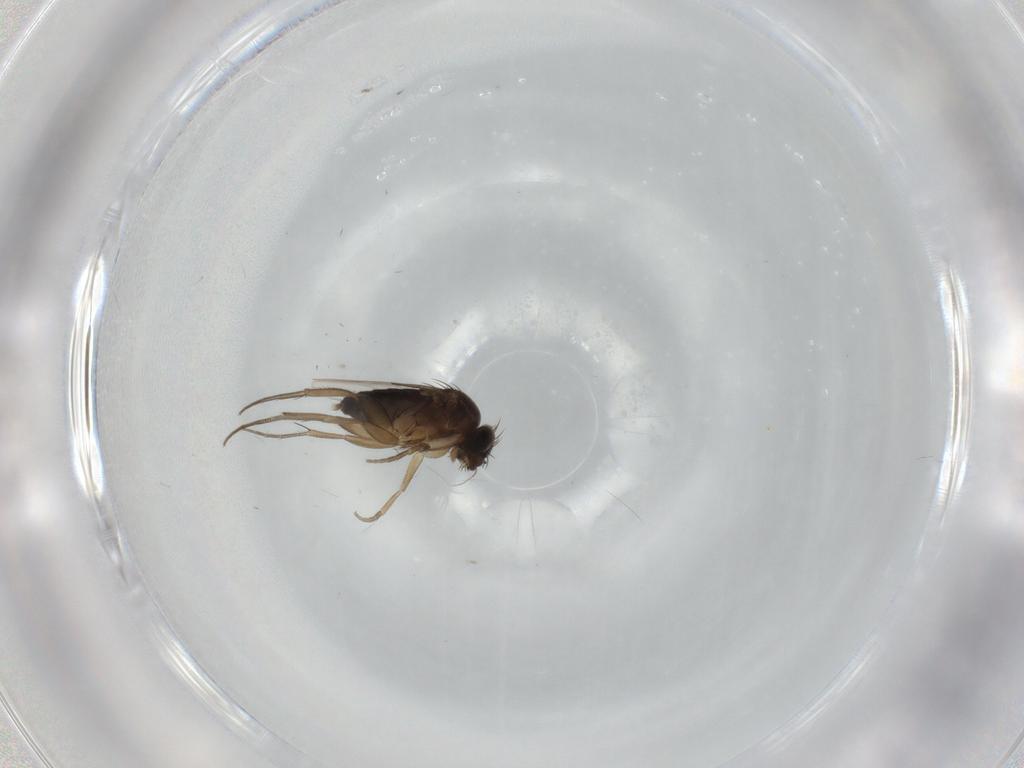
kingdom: Animalia
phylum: Arthropoda
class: Insecta
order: Diptera
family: Phoridae
